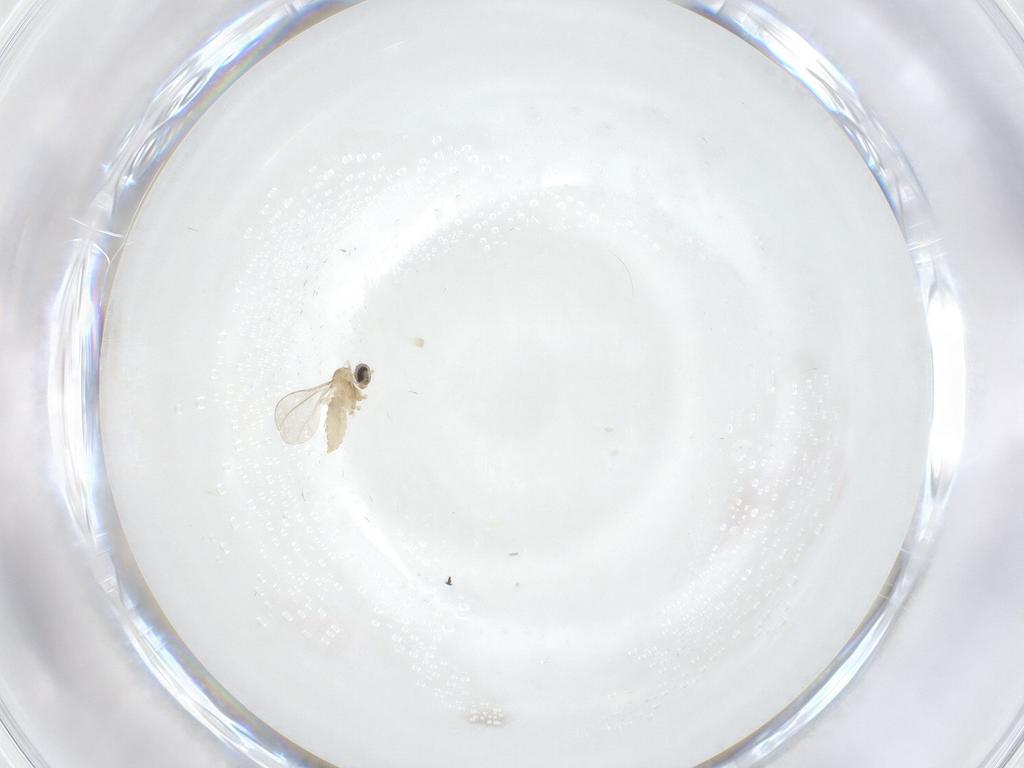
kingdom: Animalia
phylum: Arthropoda
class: Insecta
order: Diptera
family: Cecidomyiidae
